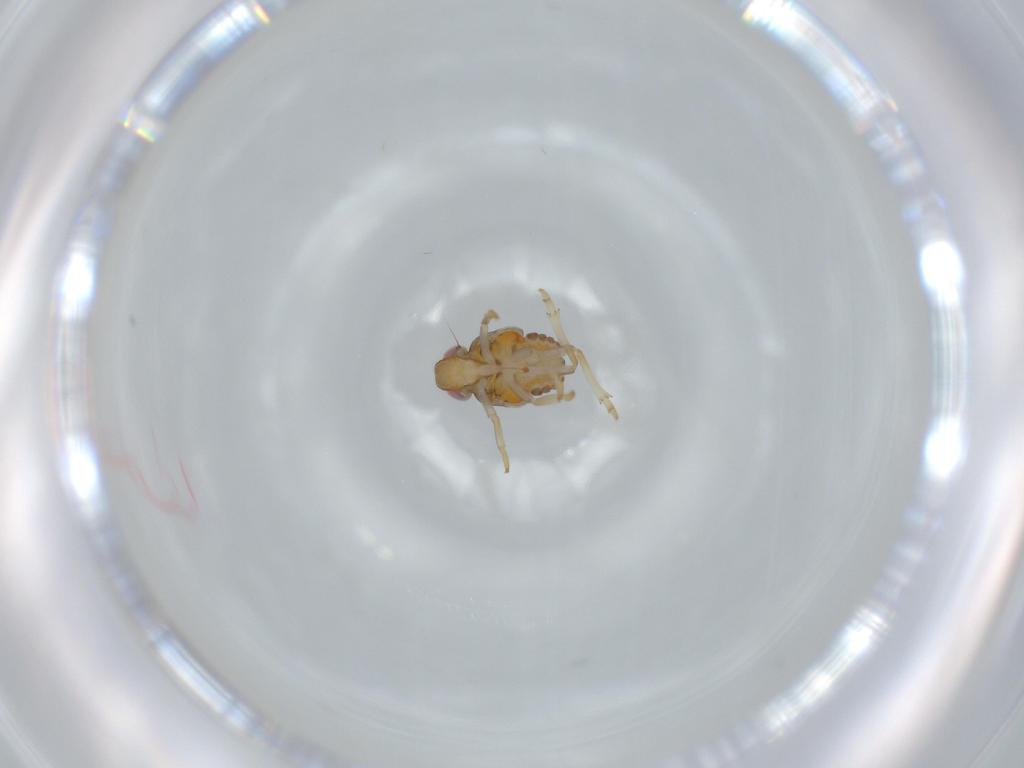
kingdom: Animalia
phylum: Arthropoda
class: Insecta
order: Hemiptera
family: Issidae
